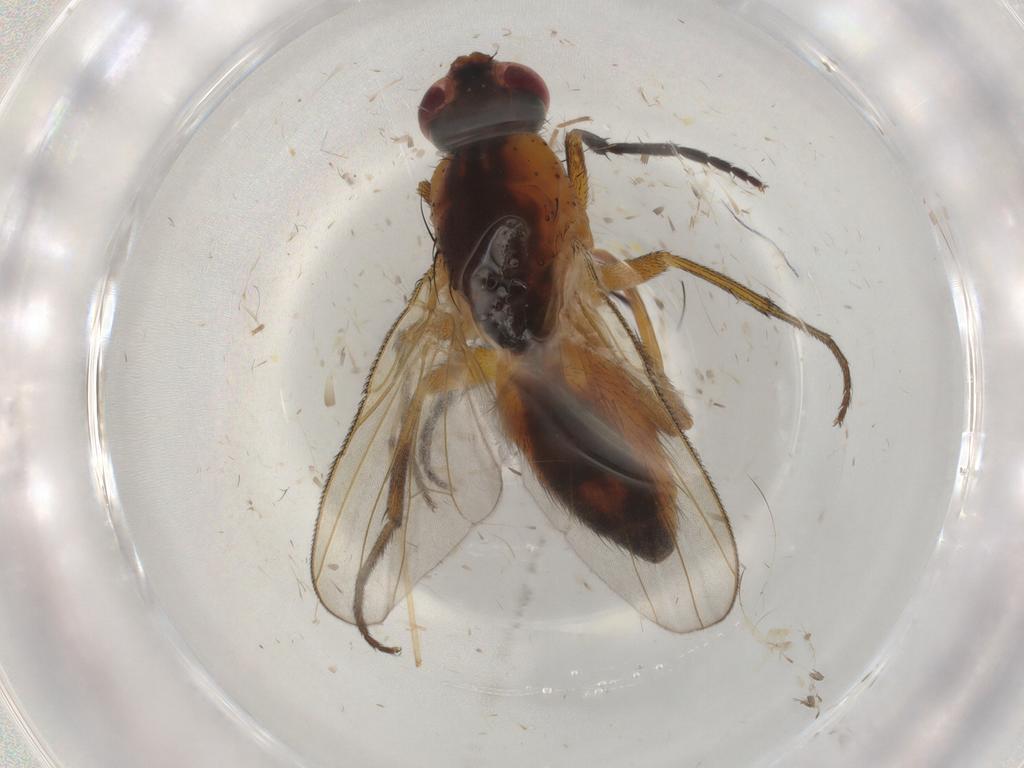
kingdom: Animalia
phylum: Arthropoda
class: Insecta
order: Diptera
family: Muscidae
